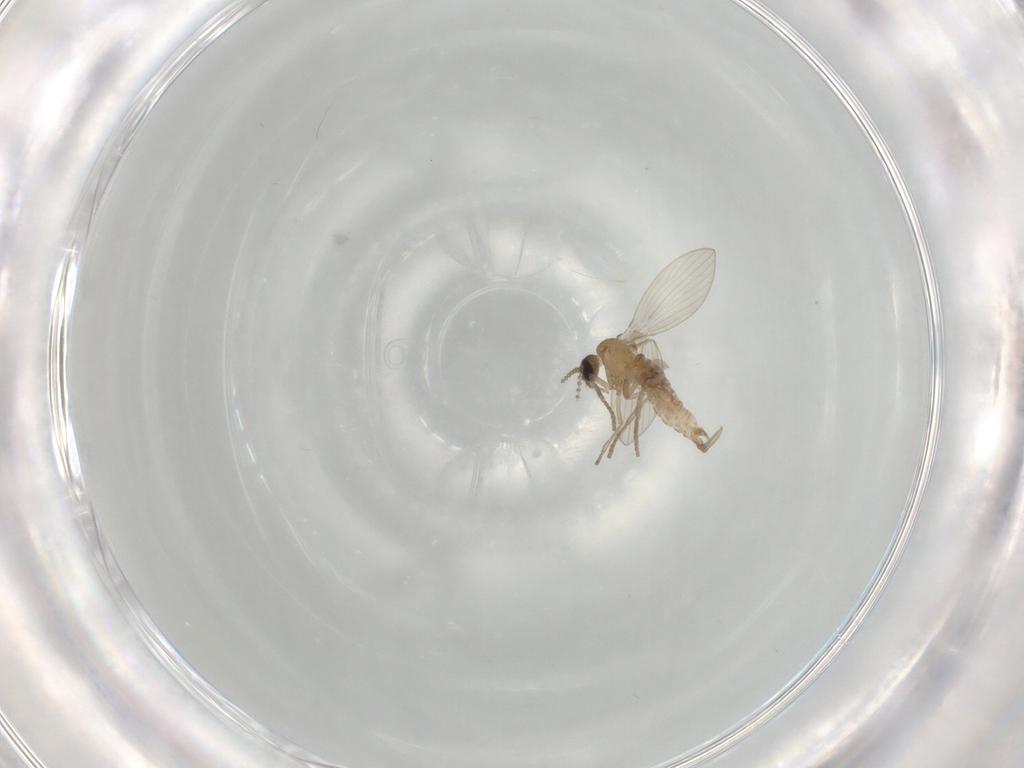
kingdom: Animalia
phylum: Arthropoda
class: Insecta
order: Diptera
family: Psychodidae
